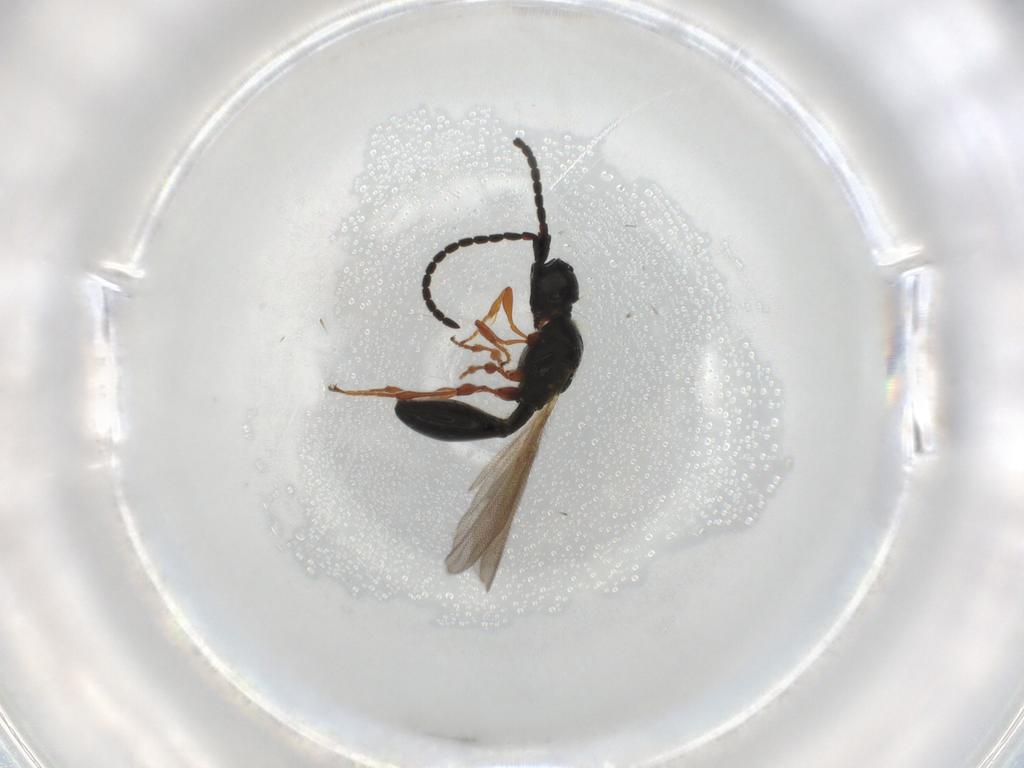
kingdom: Animalia
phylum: Arthropoda
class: Insecta
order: Hymenoptera
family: Diapriidae
